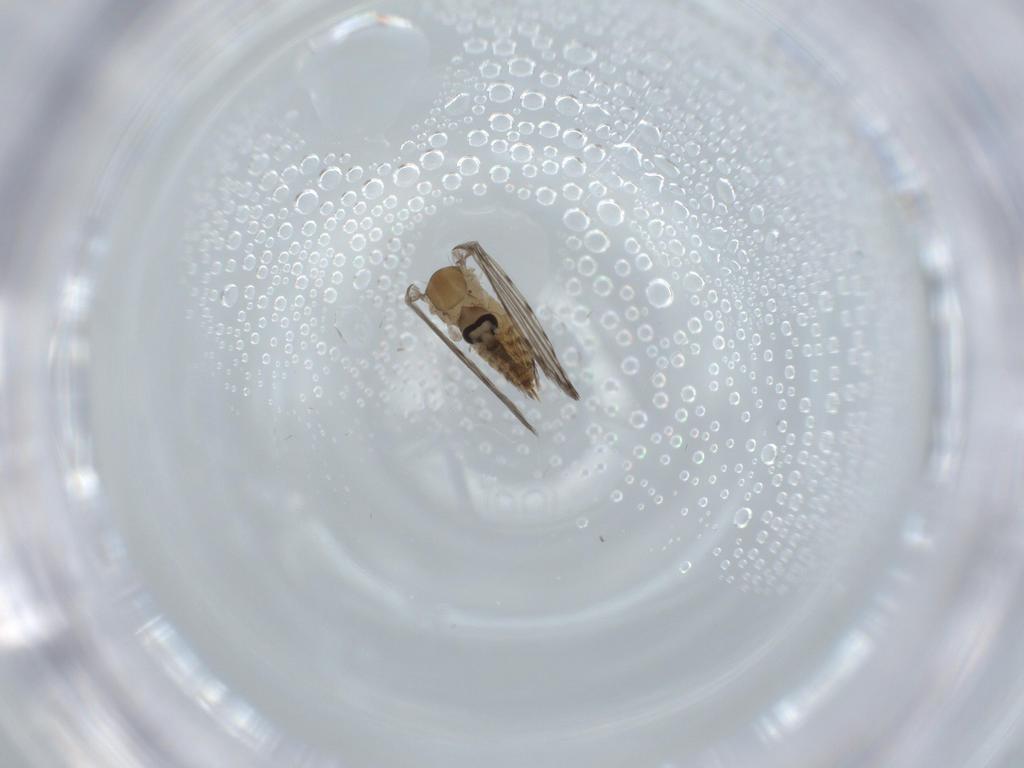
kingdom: Animalia
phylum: Arthropoda
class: Insecta
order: Diptera
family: Psychodidae
